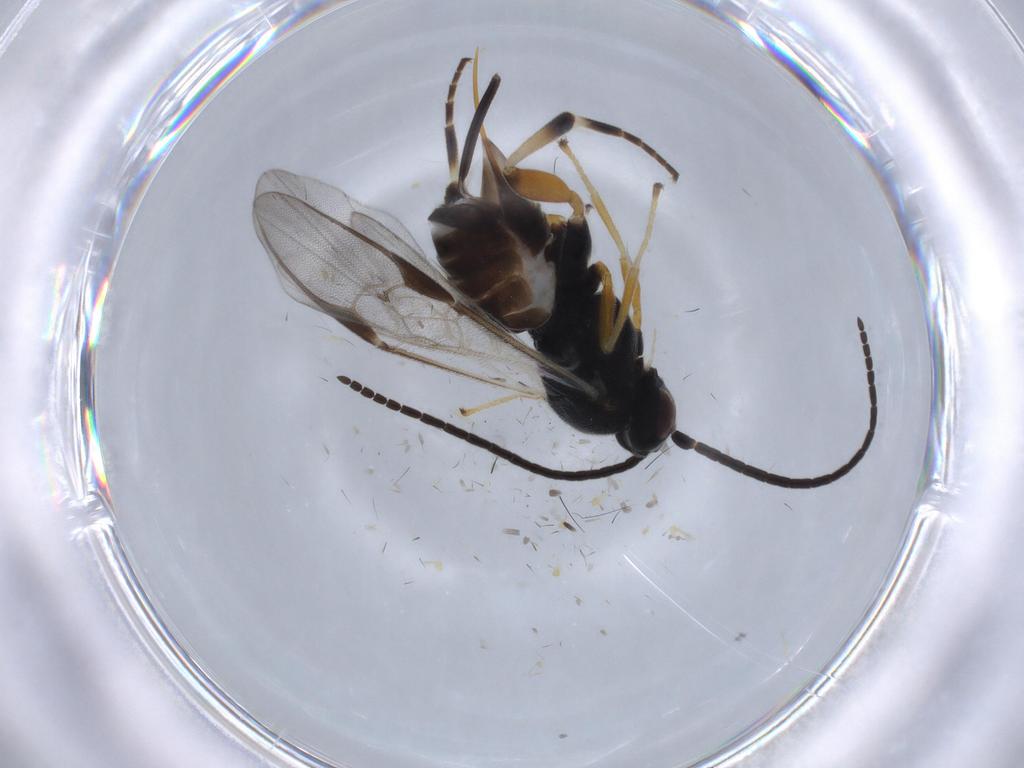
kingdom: Animalia
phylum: Arthropoda
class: Insecta
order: Hymenoptera
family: Braconidae
